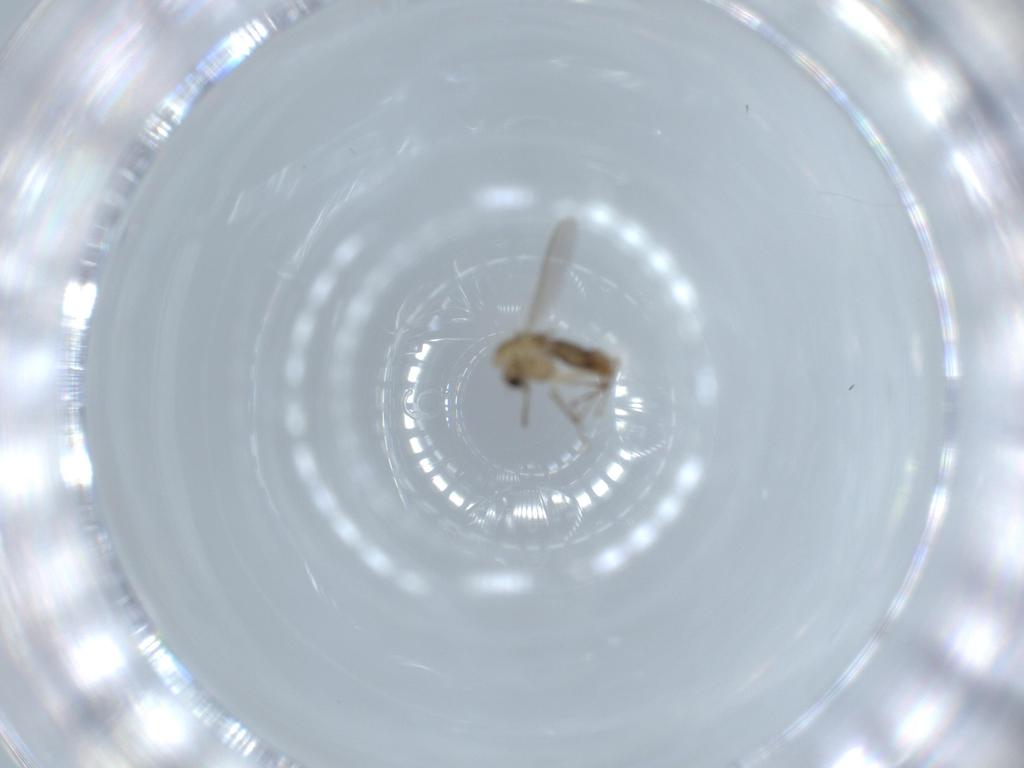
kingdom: Animalia
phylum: Arthropoda
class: Insecta
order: Diptera
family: Chironomidae
